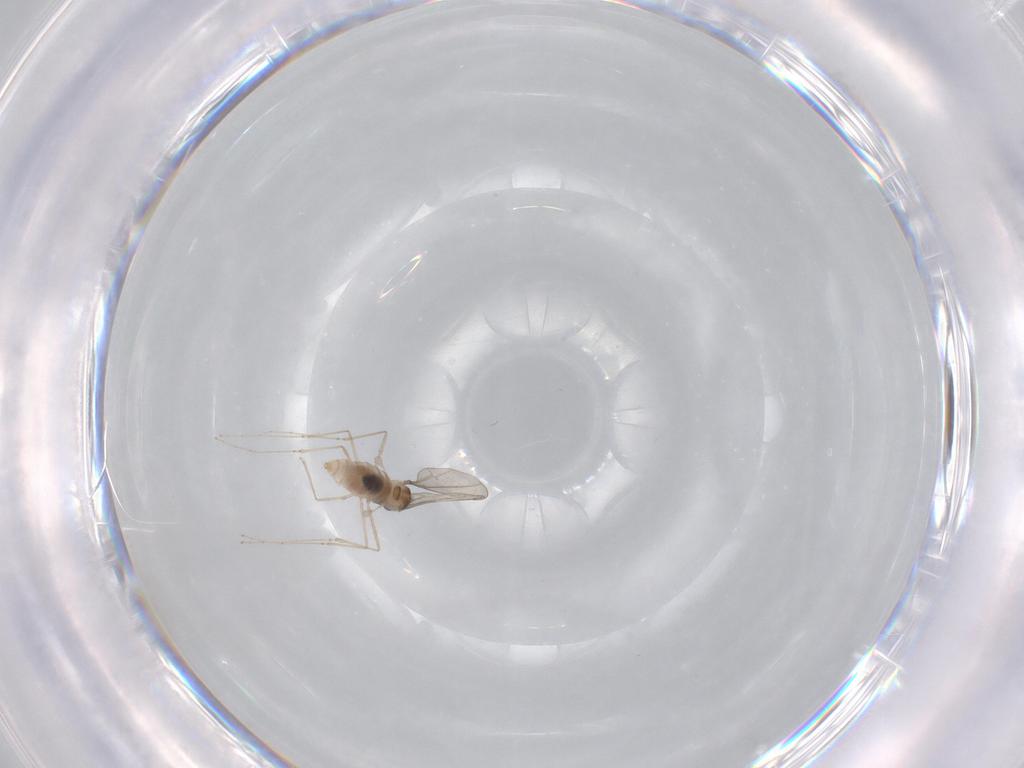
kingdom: Animalia
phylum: Arthropoda
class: Insecta
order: Diptera
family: Cecidomyiidae
